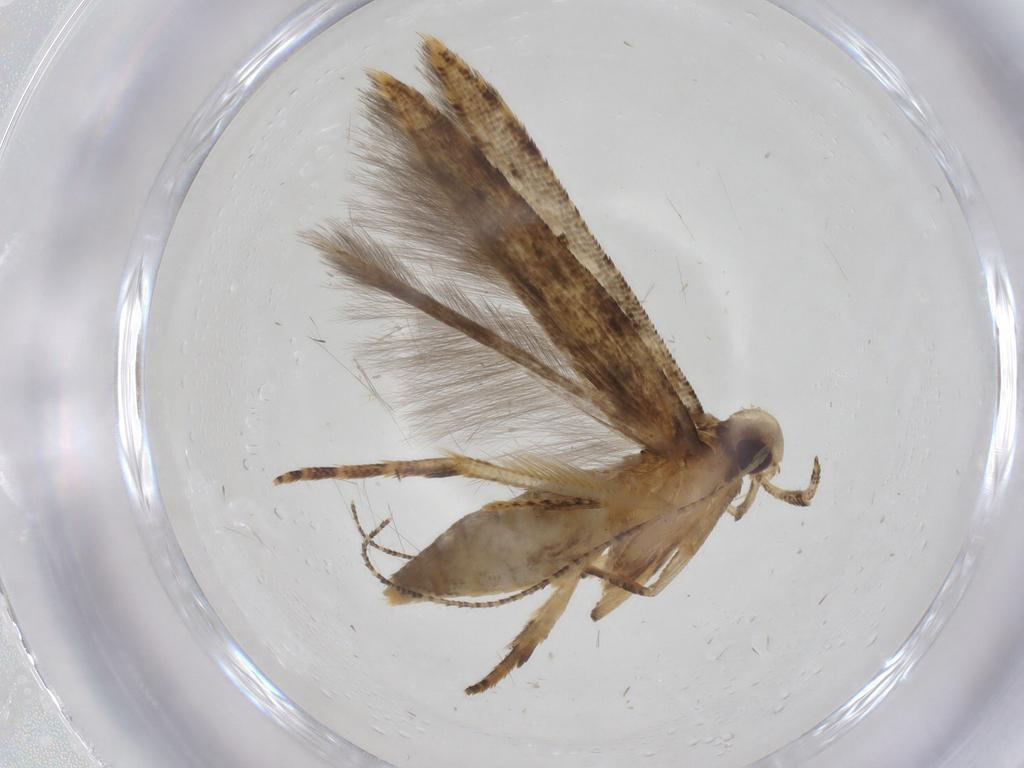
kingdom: Animalia
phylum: Arthropoda
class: Insecta
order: Lepidoptera
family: Crambidae
